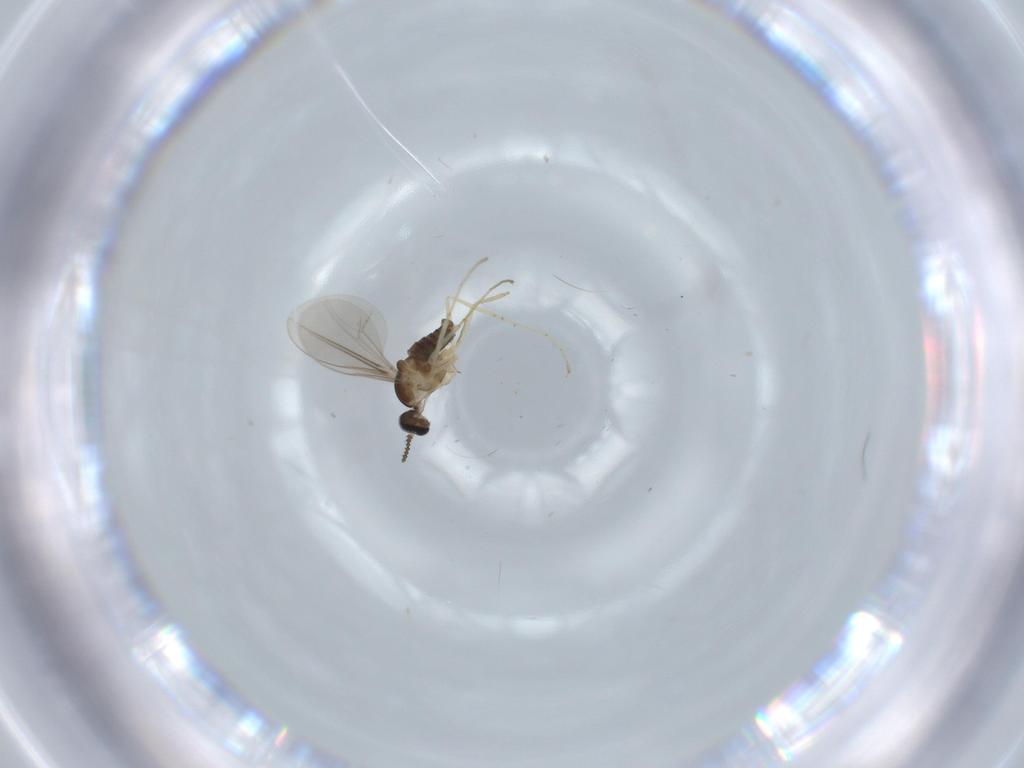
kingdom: Animalia
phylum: Arthropoda
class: Insecta
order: Diptera
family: Cecidomyiidae
